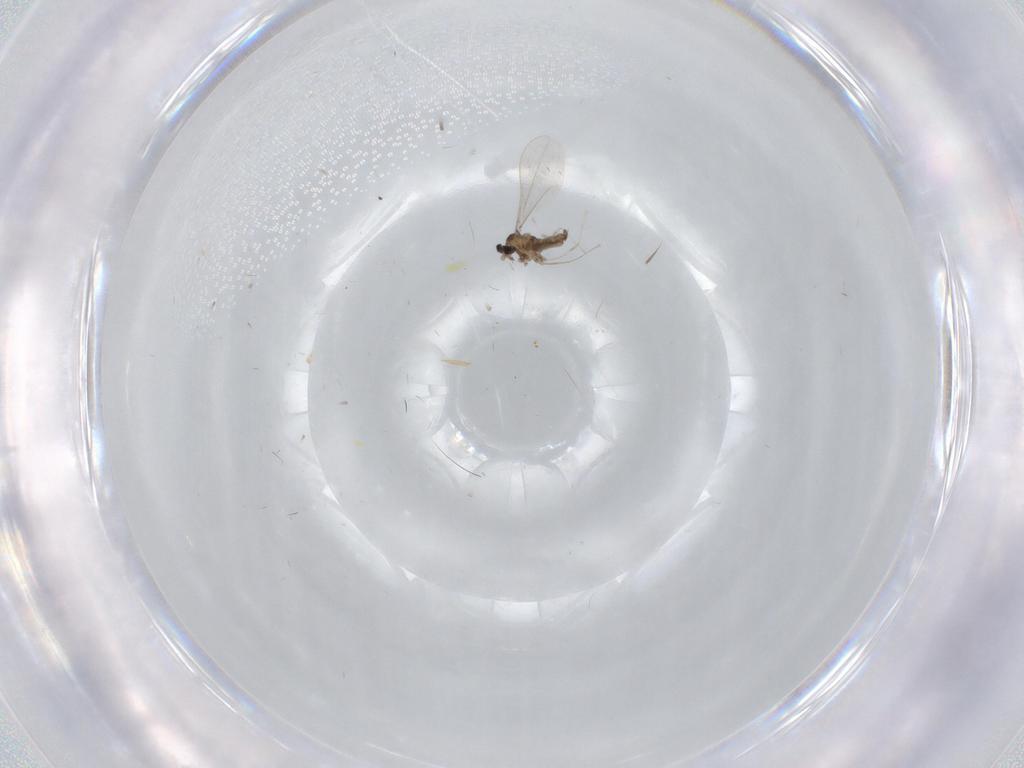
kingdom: Animalia
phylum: Arthropoda
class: Insecta
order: Diptera
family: Cecidomyiidae
